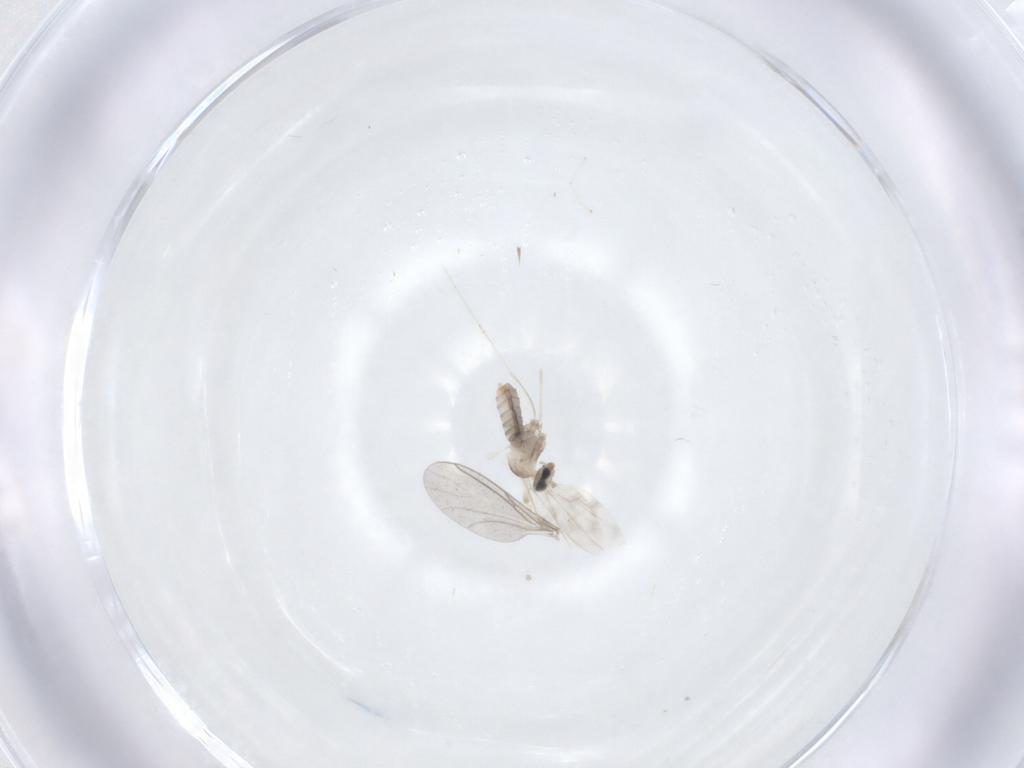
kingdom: Animalia
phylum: Arthropoda
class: Insecta
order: Diptera
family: Cecidomyiidae
